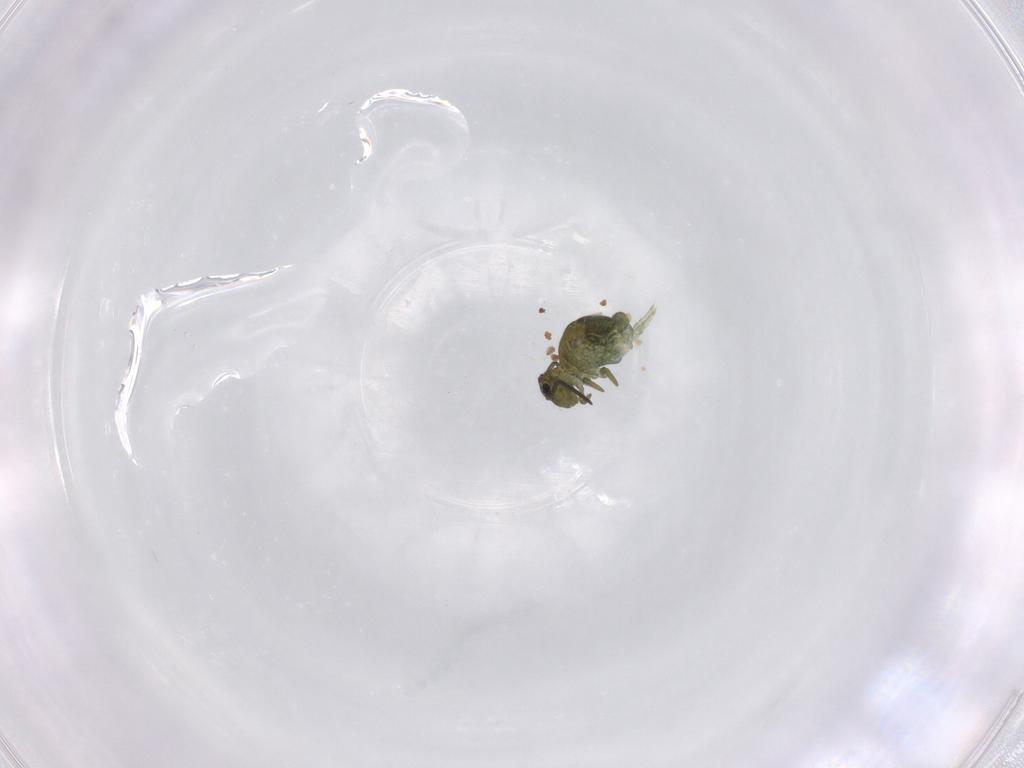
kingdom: Animalia
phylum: Arthropoda
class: Collembola
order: Symphypleona
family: Sminthuridae
